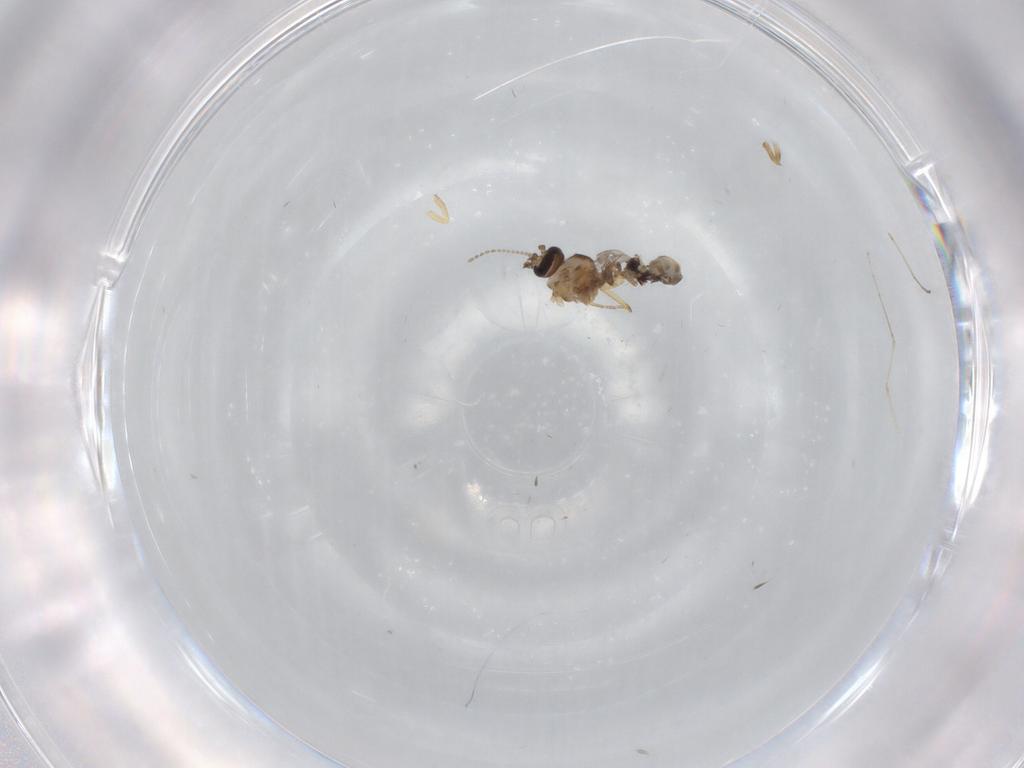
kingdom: Animalia
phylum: Arthropoda
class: Insecta
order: Diptera
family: Ceratopogonidae
